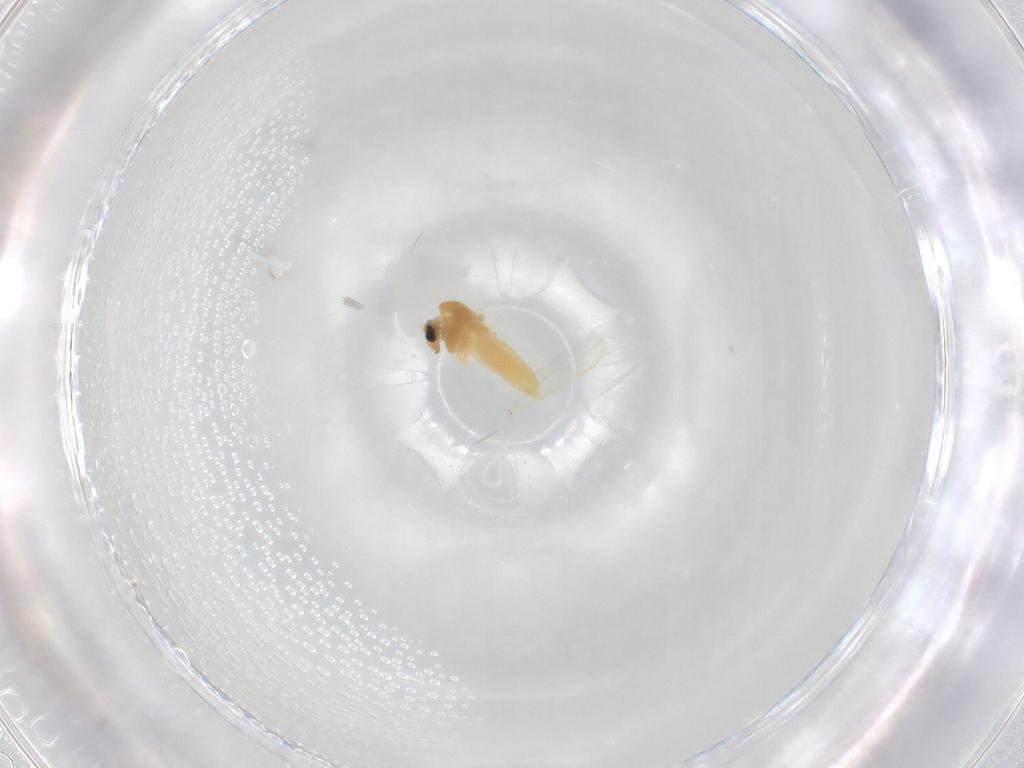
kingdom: Animalia
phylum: Arthropoda
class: Insecta
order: Diptera
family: Chironomidae
